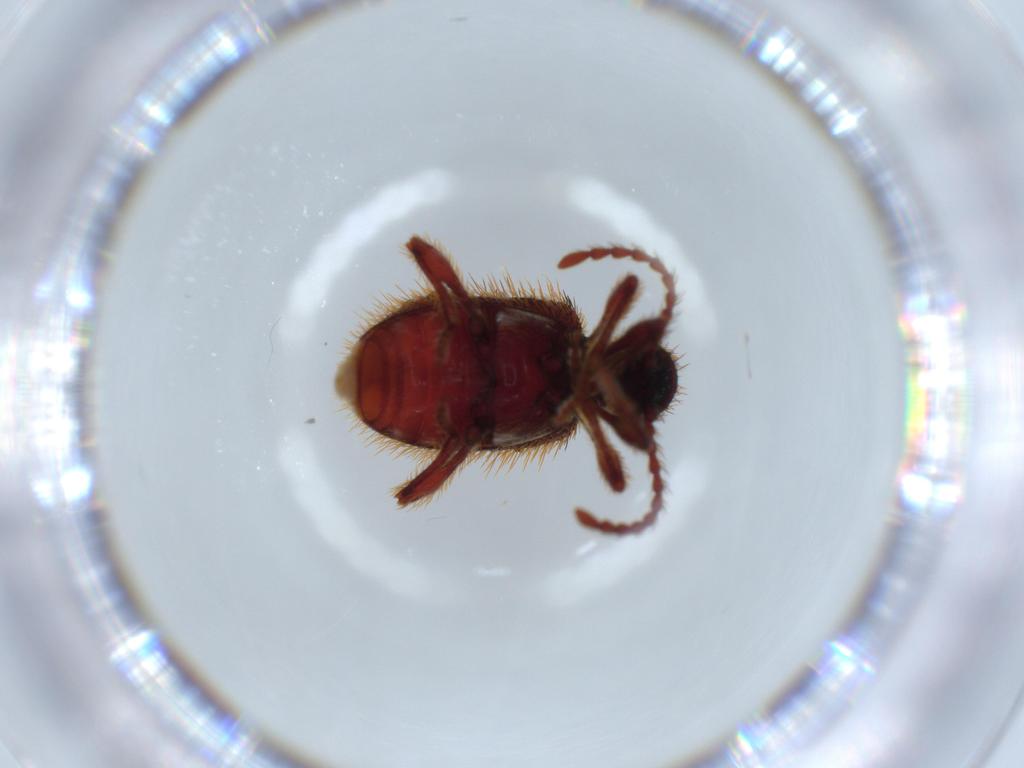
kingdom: Animalia
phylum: Arthropoda
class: Insecta
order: Coleoptera
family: Ptinidae
